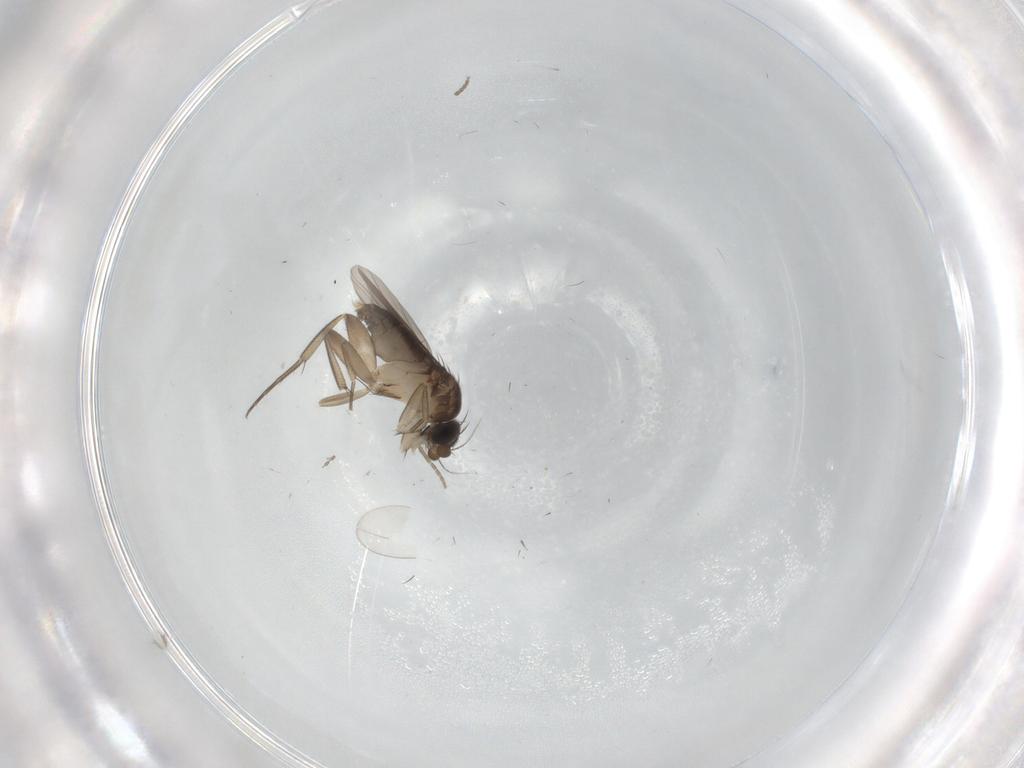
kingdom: Animalia
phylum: Arthropoda
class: Insecta
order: Diptera
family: Phoridae
